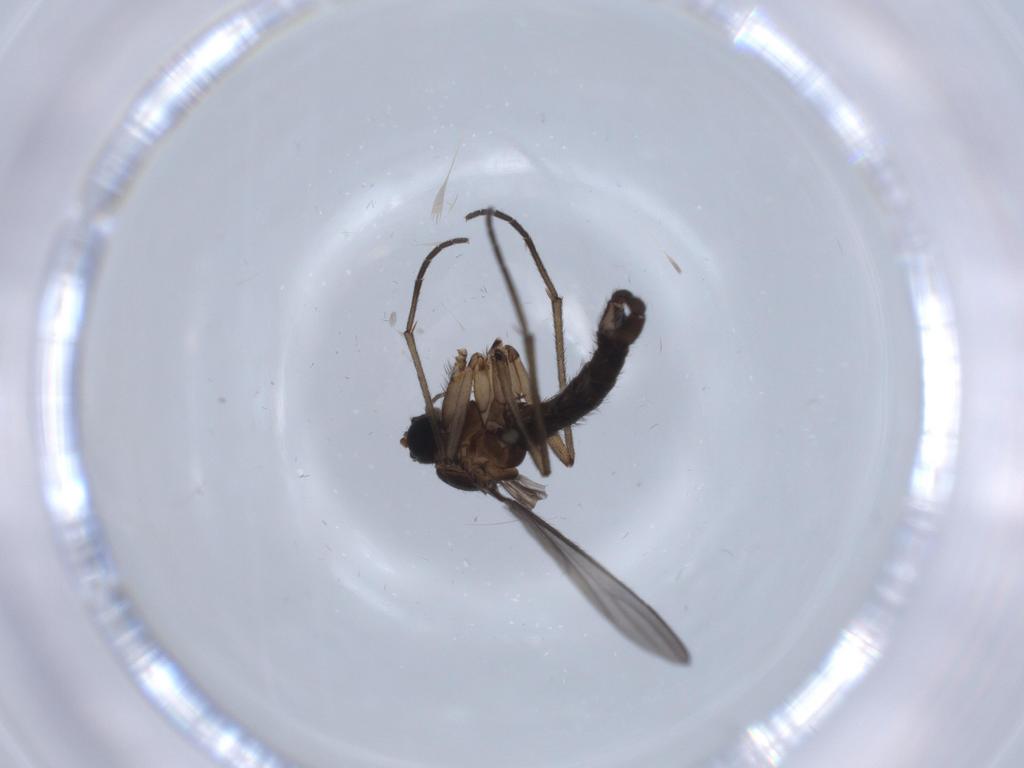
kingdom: Animalia
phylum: Arthropoda
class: Insecta
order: Diptera
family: Sciaridae
